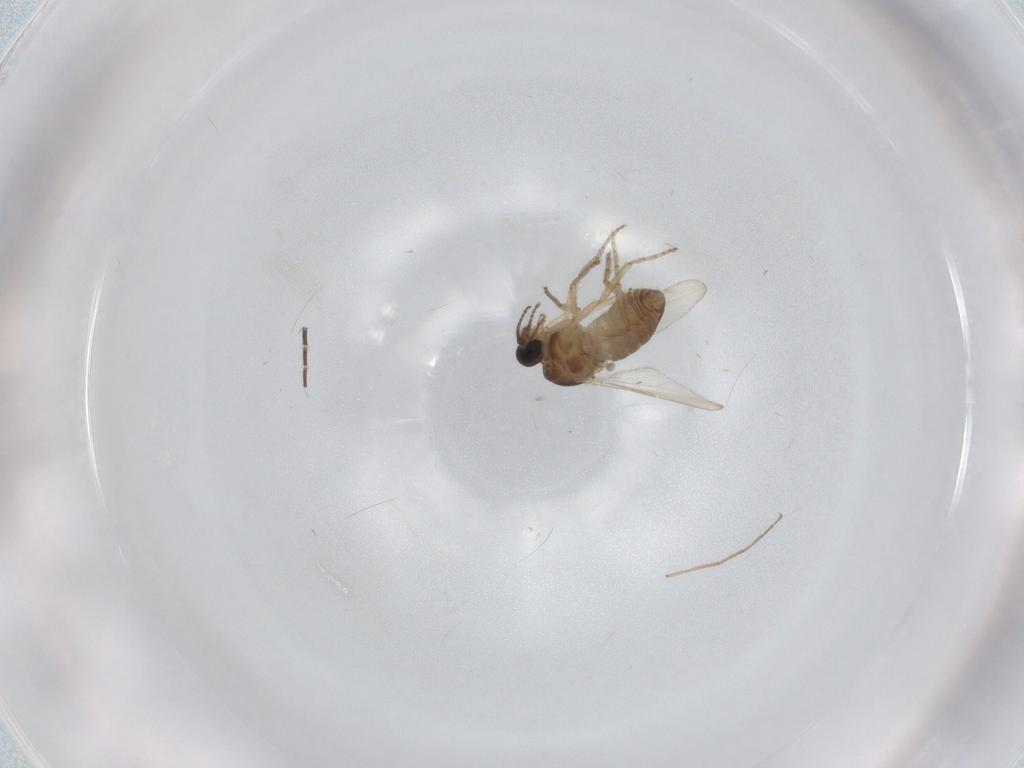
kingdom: Animalia
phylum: Arthropoda
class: Insecta
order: Diptera
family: Ceratopogonidae
